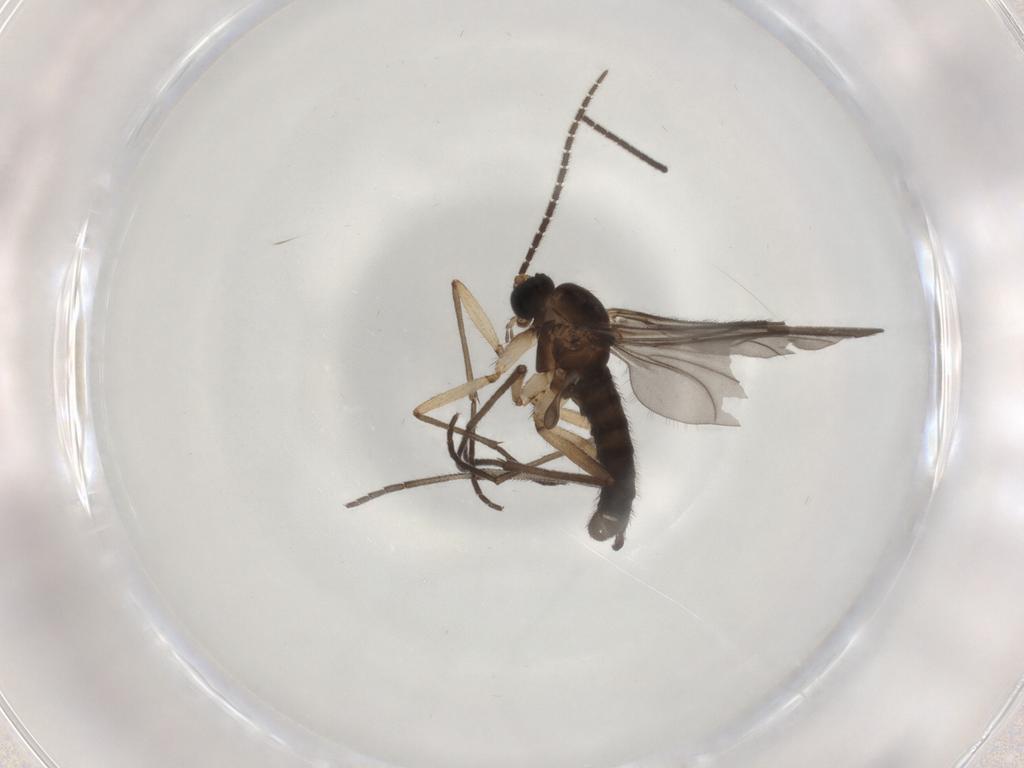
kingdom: Animalia
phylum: Arthropoda
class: Insecta
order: Diptera
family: Sciaridae
